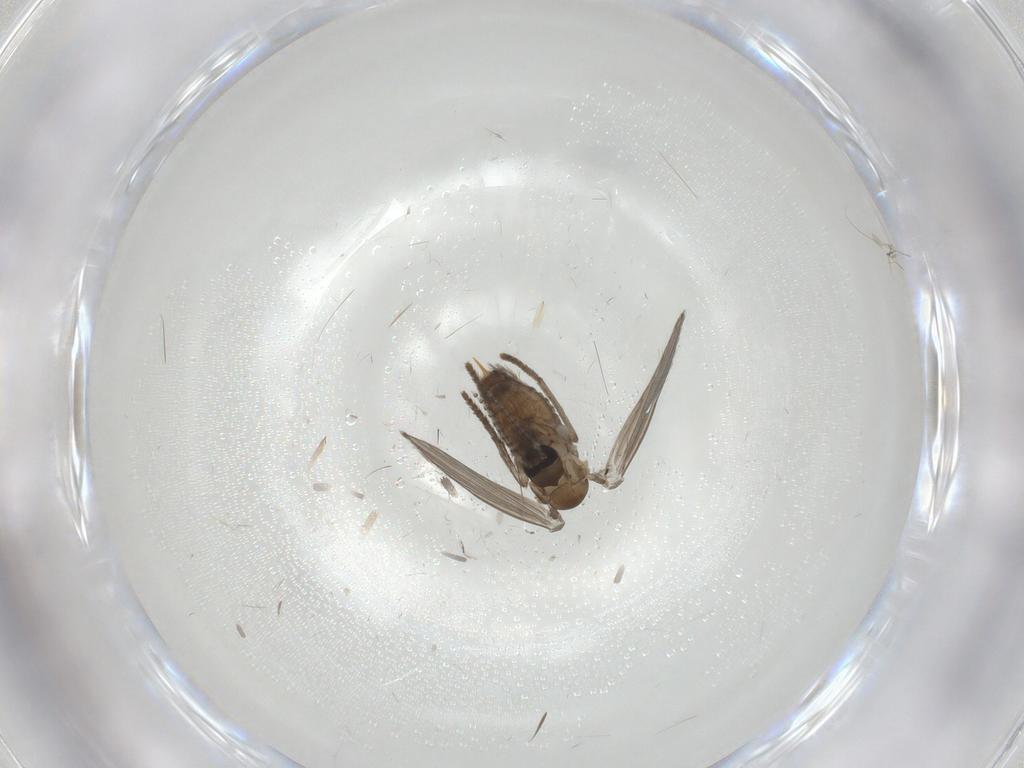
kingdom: Animalia
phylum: Arthropoda
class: Insecta
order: Diptera
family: Psychodidae
